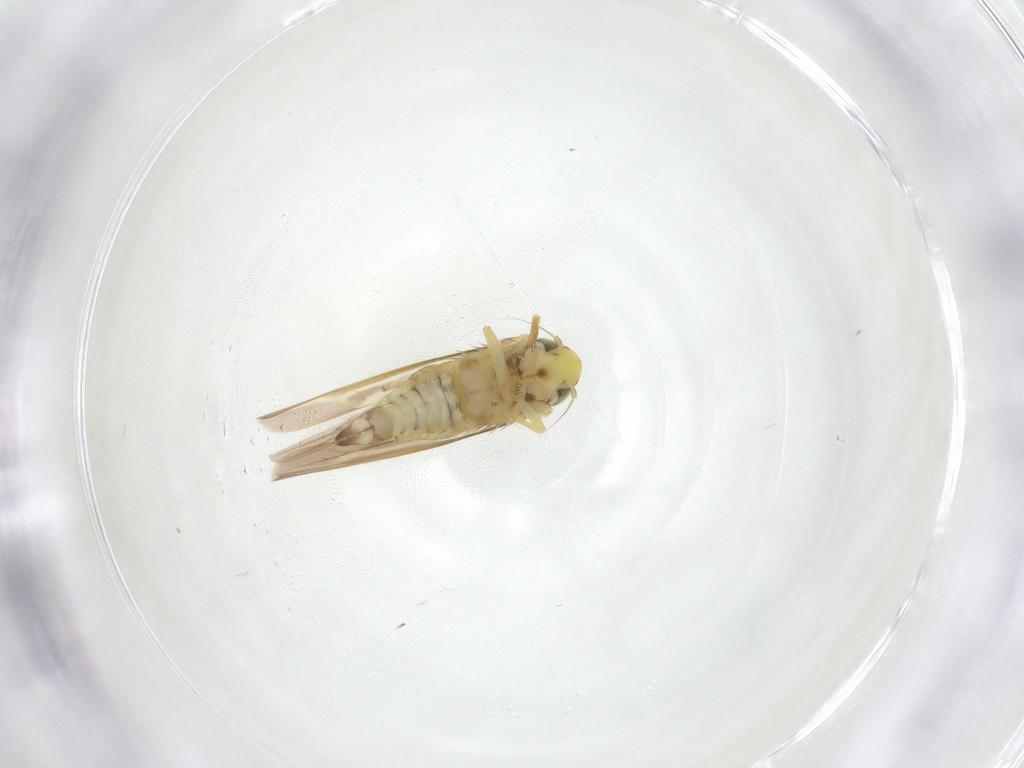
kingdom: Animalia
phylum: Arthropoda
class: Insecta
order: Hemiptera
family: Cicadellidae
